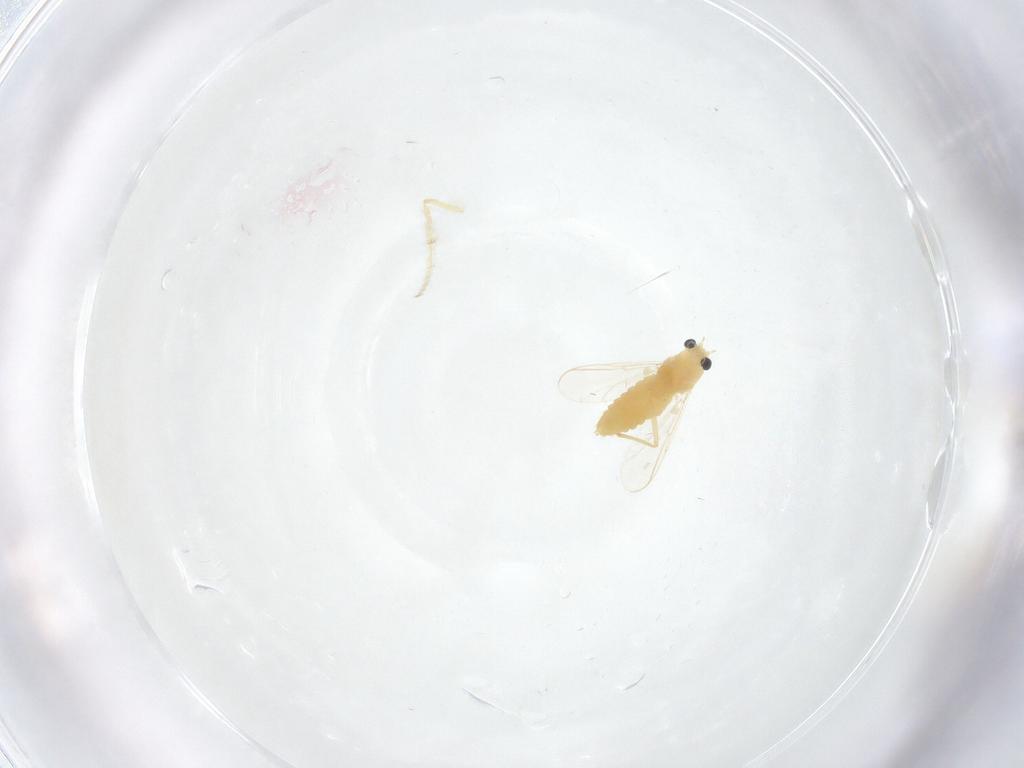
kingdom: Animalia
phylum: Arthropoda
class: Insecta
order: Diptera
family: Chironomidae
